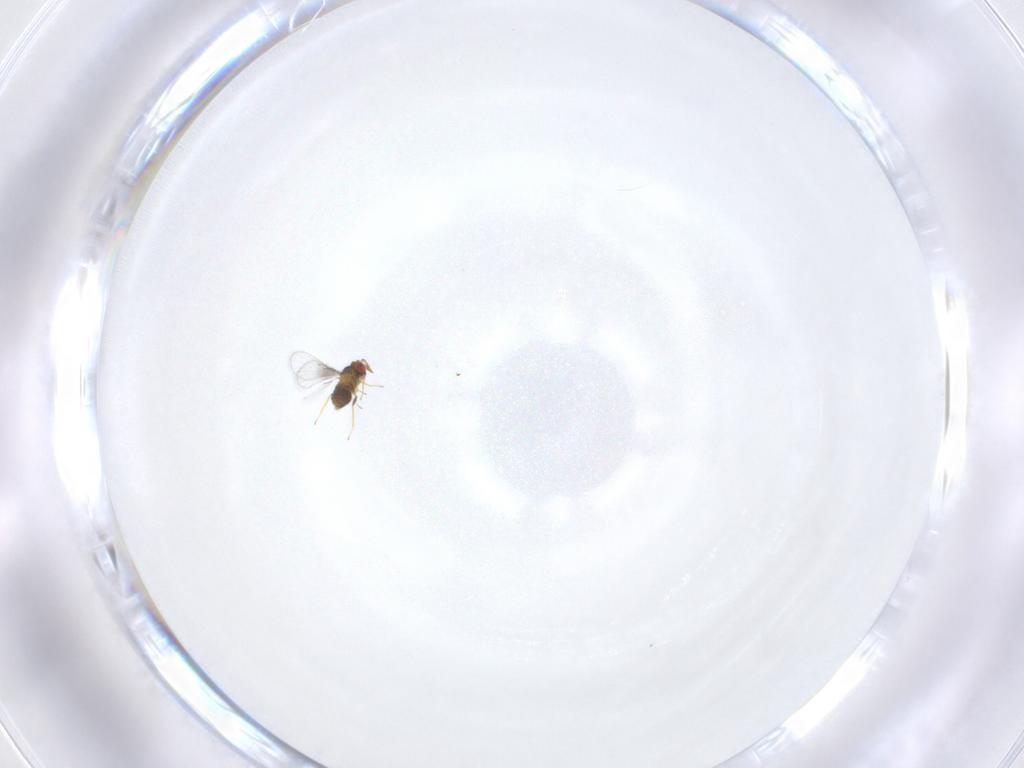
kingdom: Animalia
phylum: Arthropoda
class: Insecta
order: Hymenoptera
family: Trichogrammatidae
